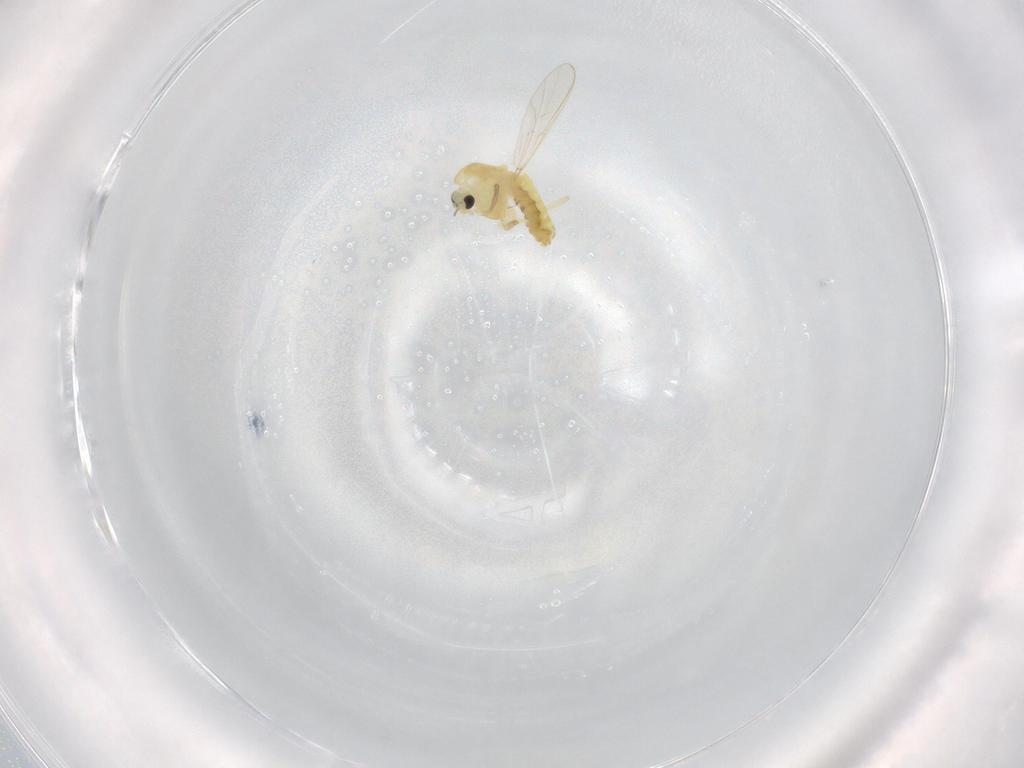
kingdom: Animalia
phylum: Arthropoda
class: Insecta
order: Diptera
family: Chironomidae
